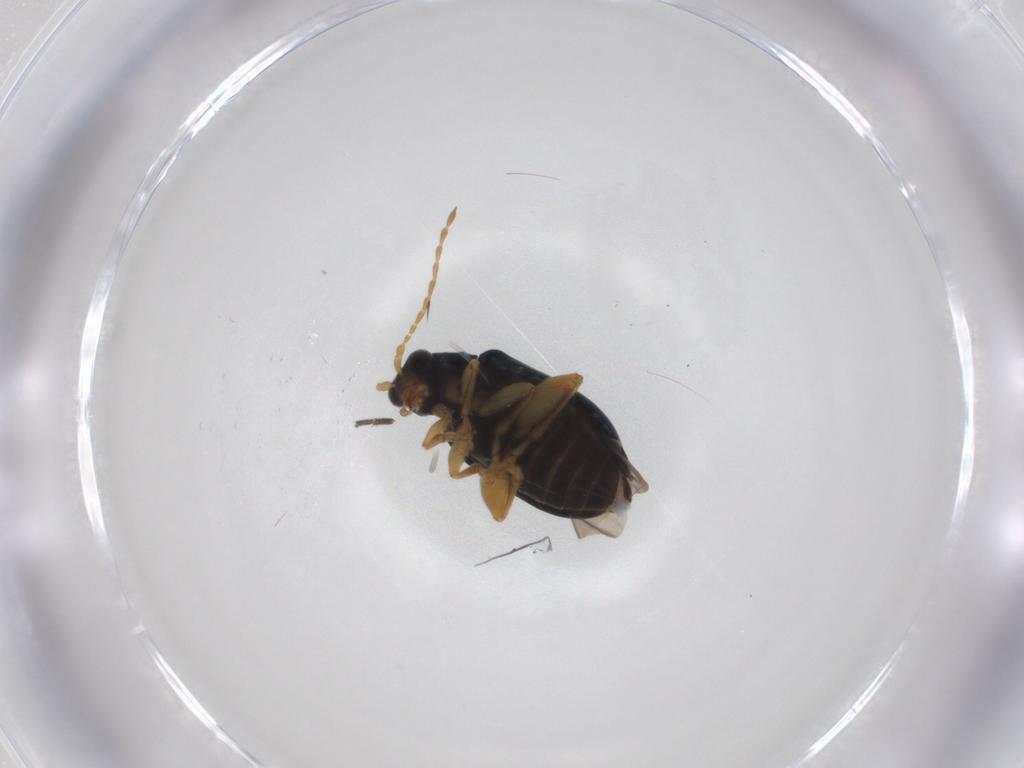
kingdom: Animalia
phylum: Arthropoda
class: Insecta
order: Coleoptera
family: Chrysomelidae
